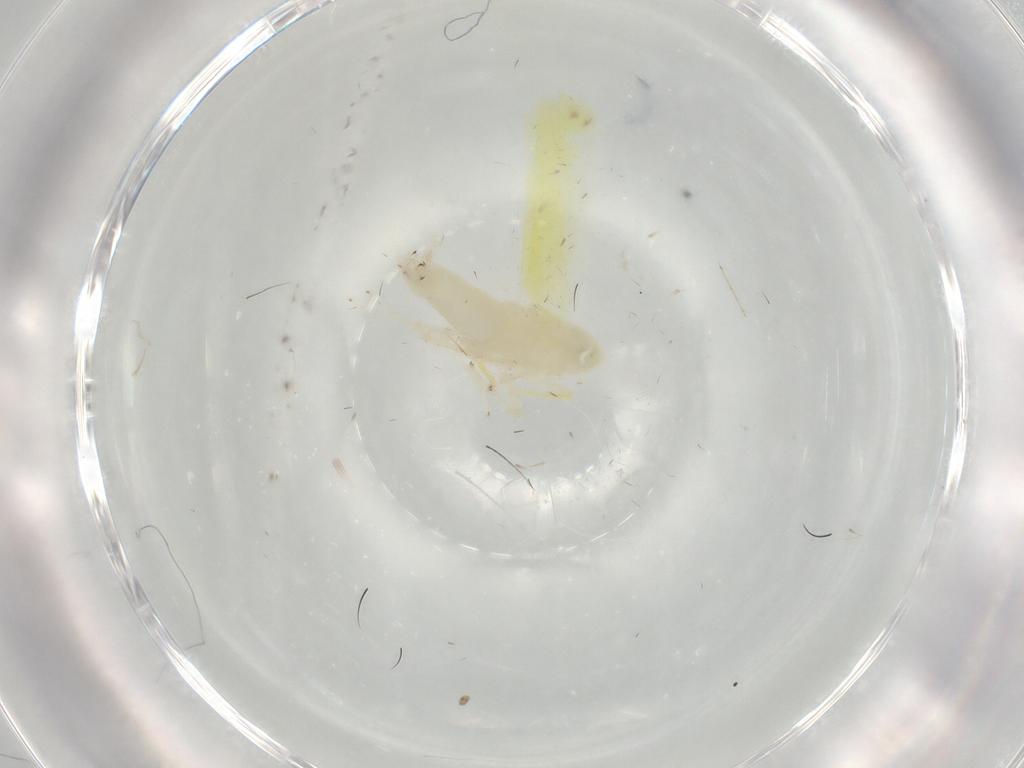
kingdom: Animalia
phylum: Arthropoda
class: Insecta
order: Hemiptera
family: Cicadellidae
